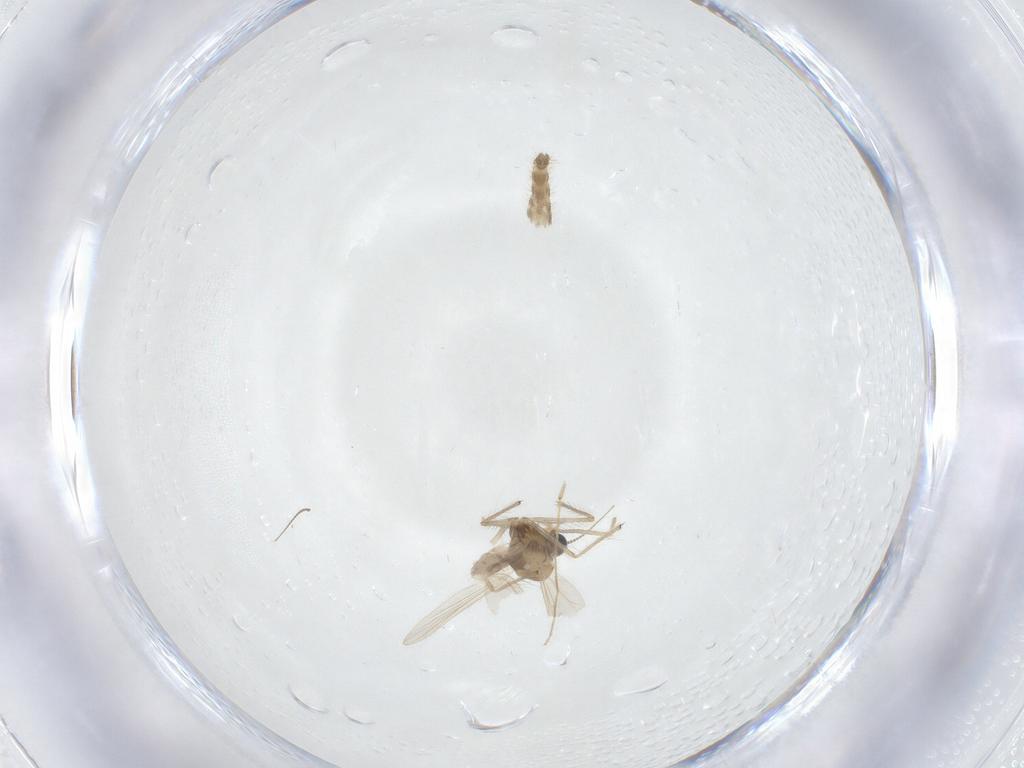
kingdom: Animalia
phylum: Arthropoda
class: Insecta
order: Diptera
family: Chironomidae
